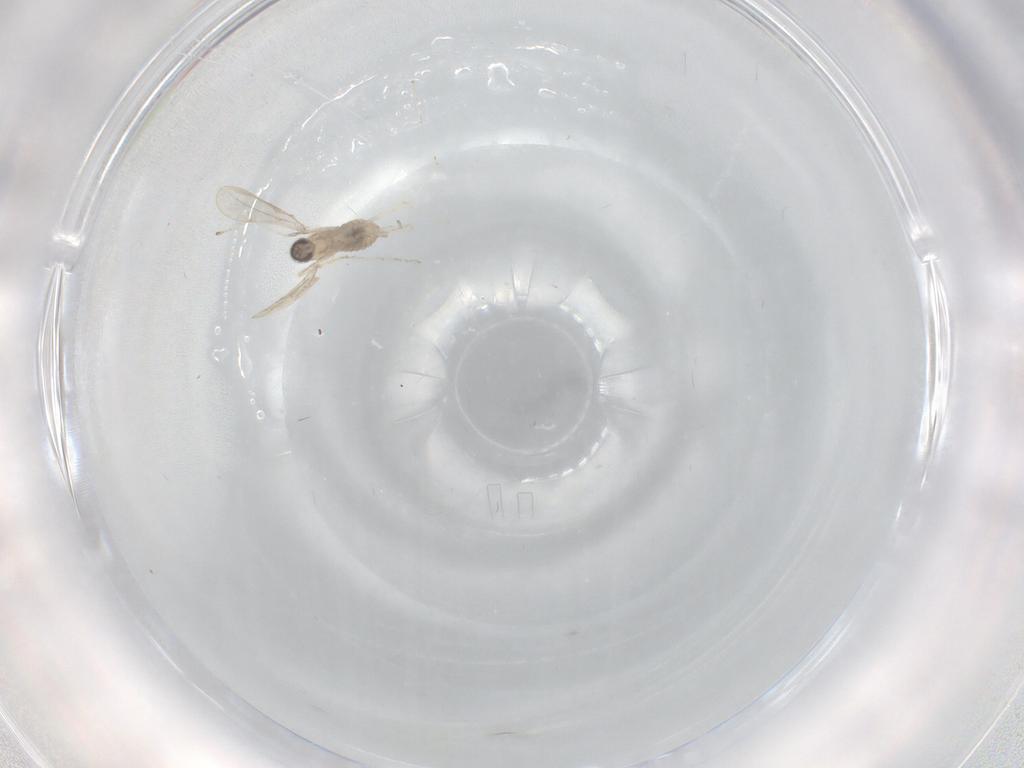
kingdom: Animalia
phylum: Arthropoda
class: Insecta
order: Diptera
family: Cecidomyiidae
